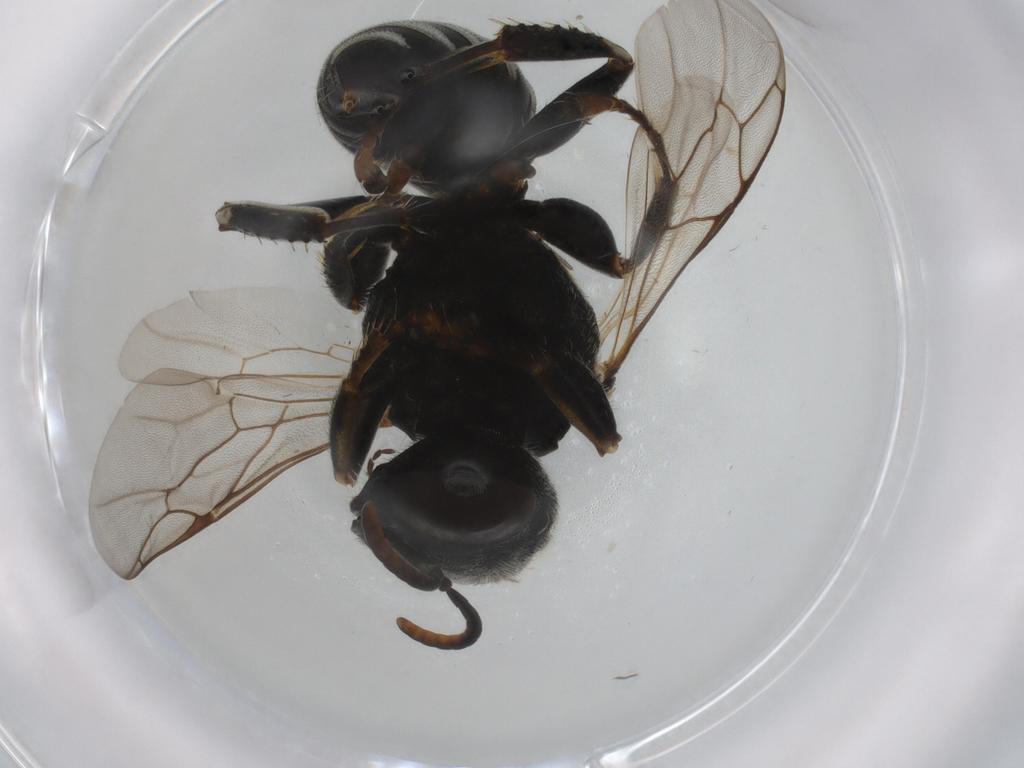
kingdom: Animalia
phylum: Arthropoda
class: Insecta
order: Hymenoptera
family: Crabronidae
